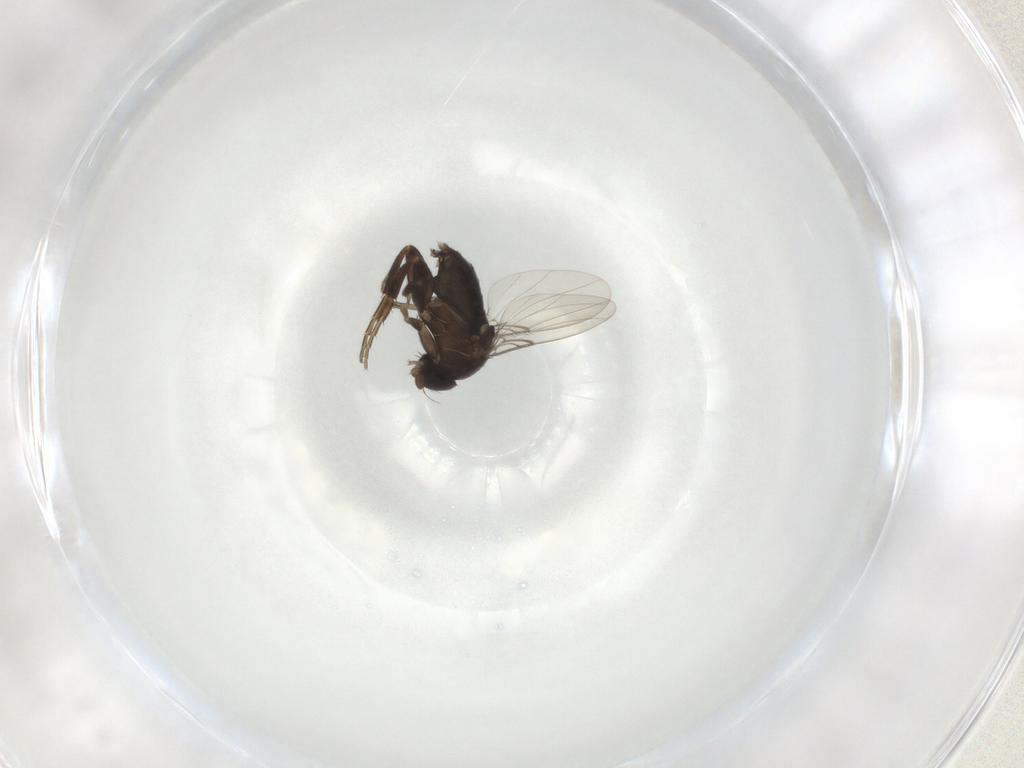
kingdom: Animalia
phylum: Arthropoda
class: Insecta
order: Diptera
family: Phoridae
